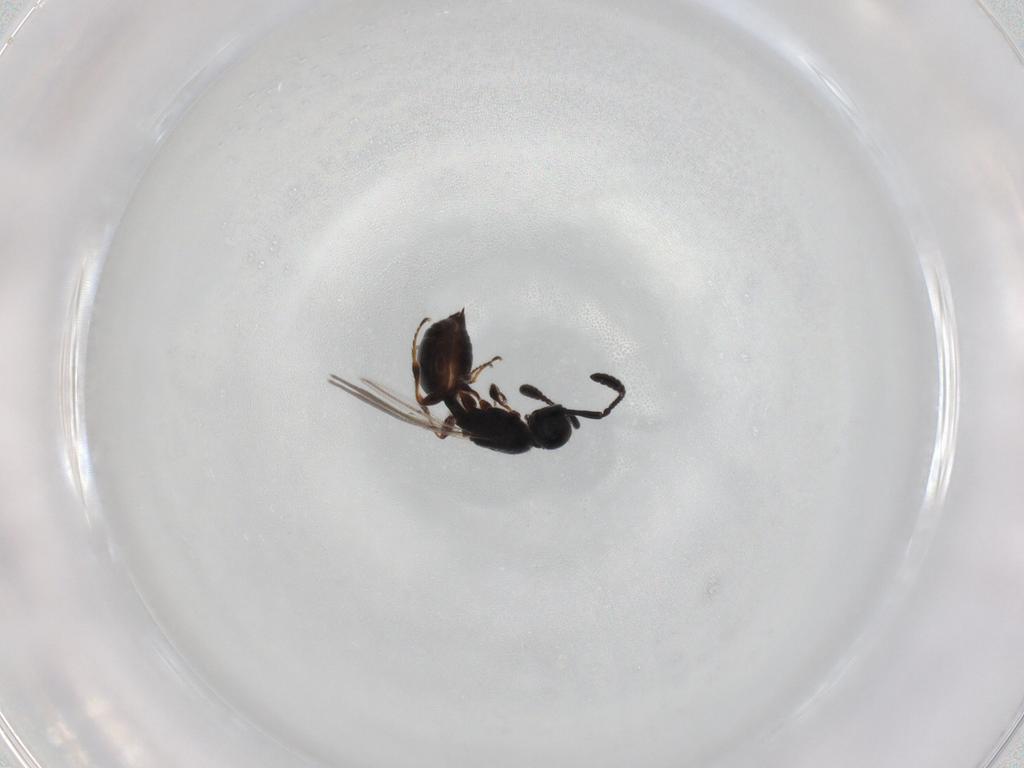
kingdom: Animalia
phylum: Arthropoda
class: Insecta
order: Hymenoptera
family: Diapriidae
